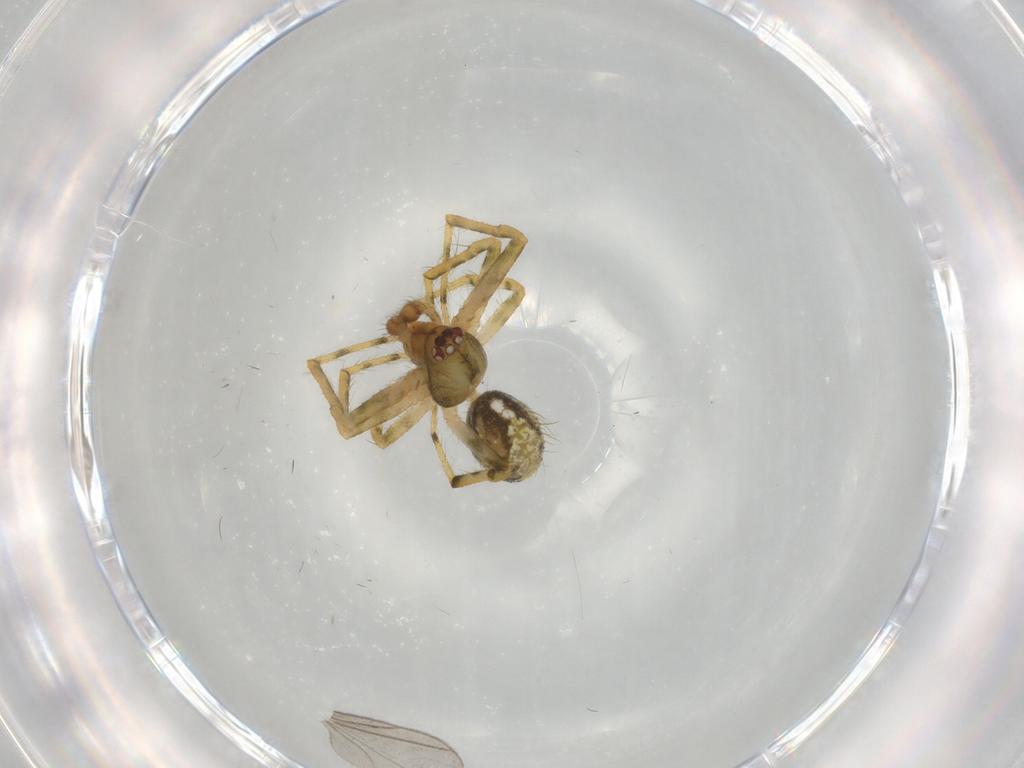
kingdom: Animalia
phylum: Arthropoda
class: Arachnida
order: Araneae
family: Theridiidae
